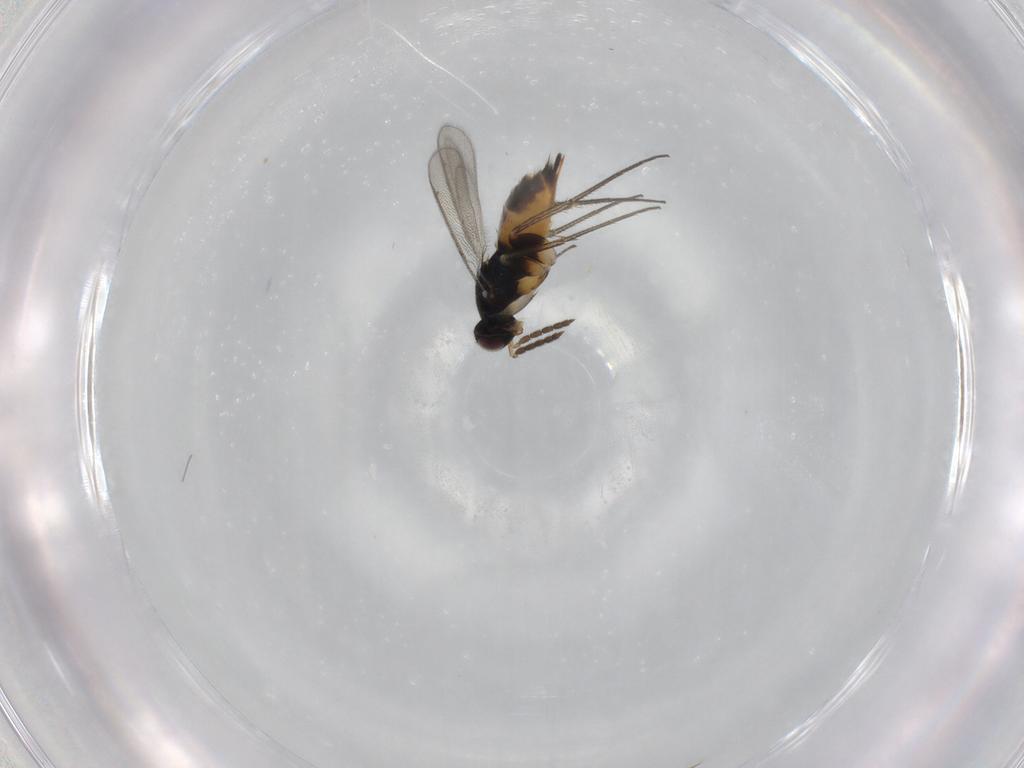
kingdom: Animalia
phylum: Arthropoda
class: Insecta
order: Hymenoptera
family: Eulophidae
